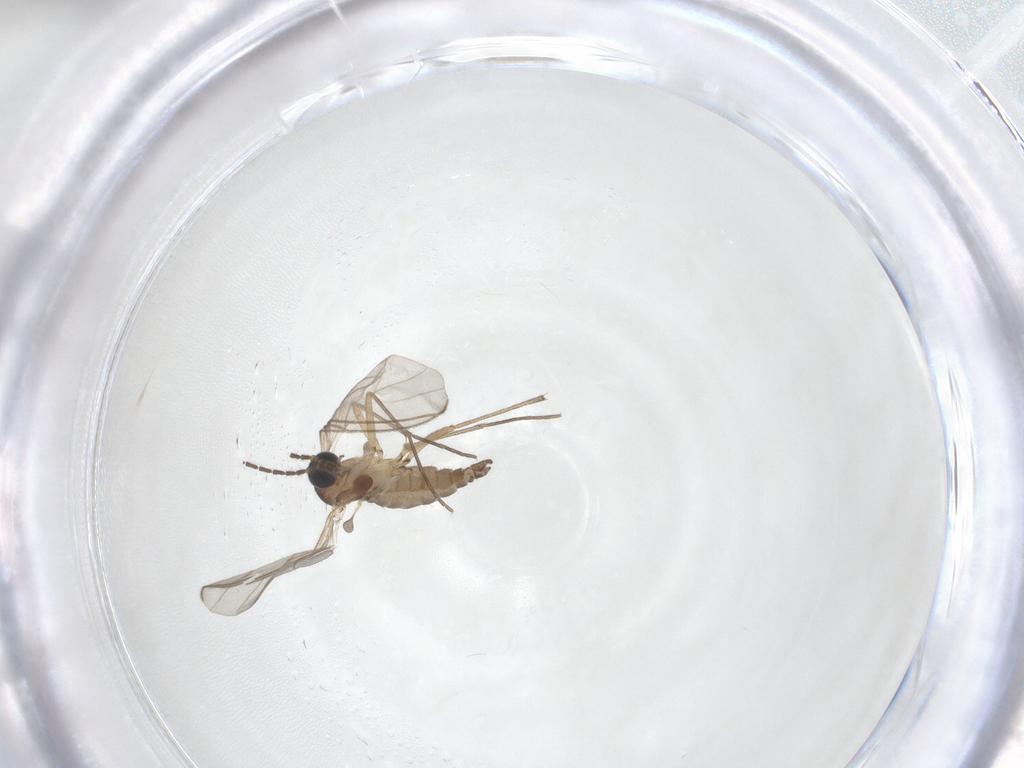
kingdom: Animalia
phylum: Arthropoda
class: Insecta
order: Diptera
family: Sciaridae
